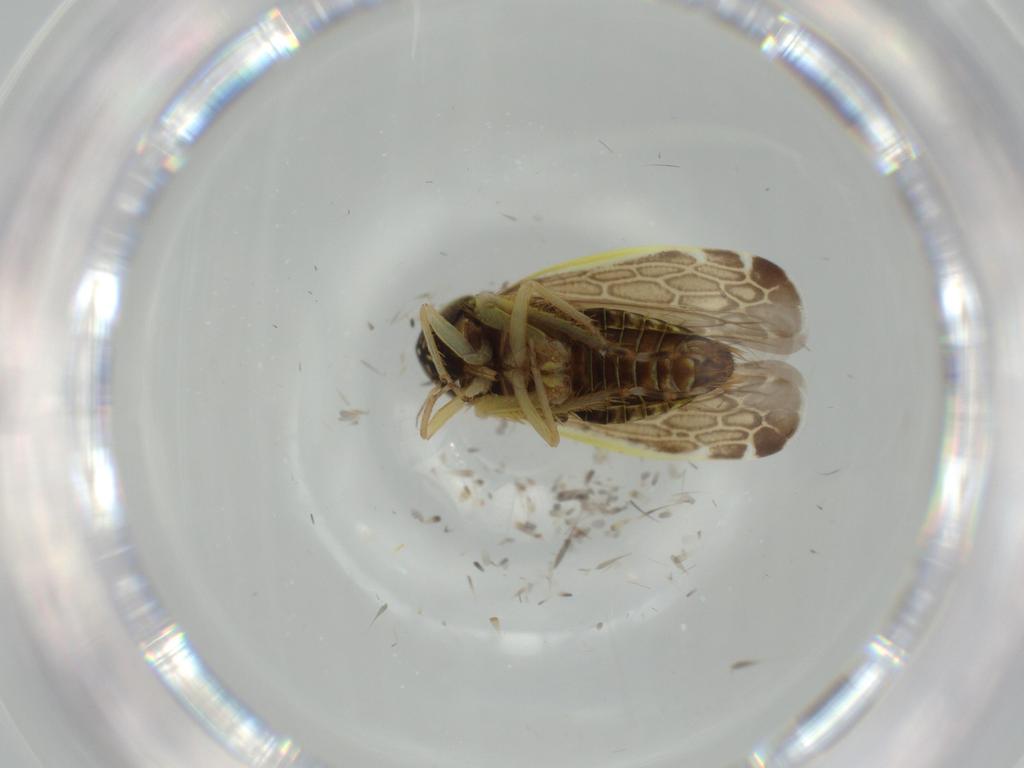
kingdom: Animalia
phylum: Arthropoda
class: Insecta
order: Hemiptera
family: Cicadellidae
